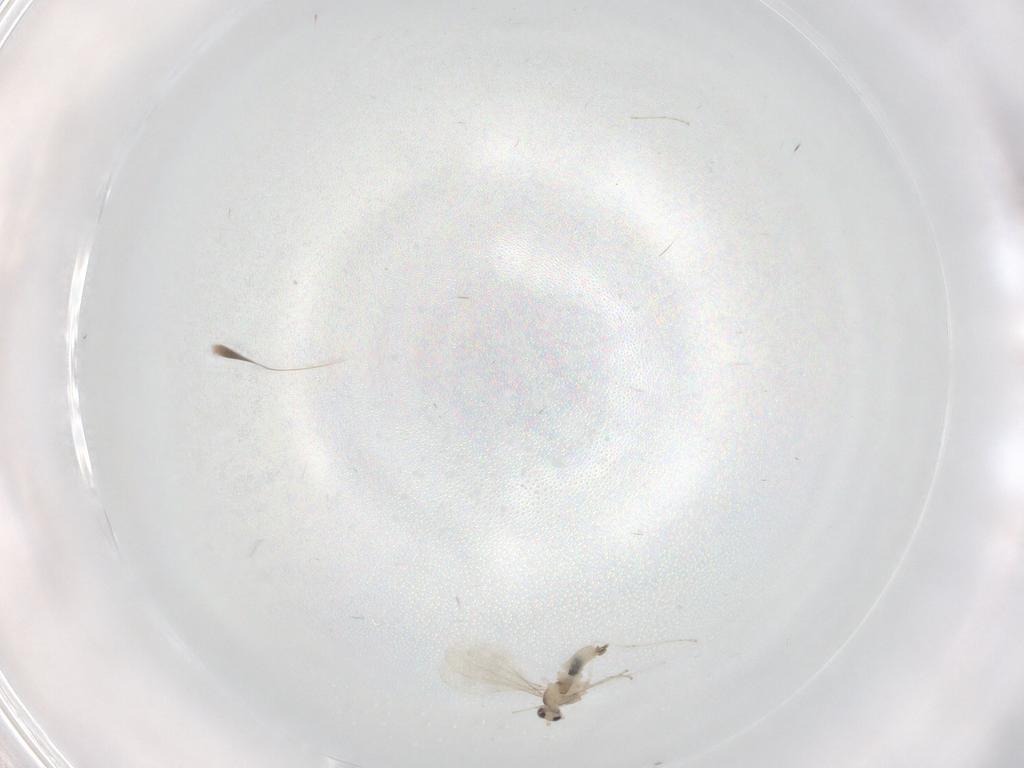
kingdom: Animalia
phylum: Arthropoda
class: Insecta
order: Diptera
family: Cecidomyiidae
